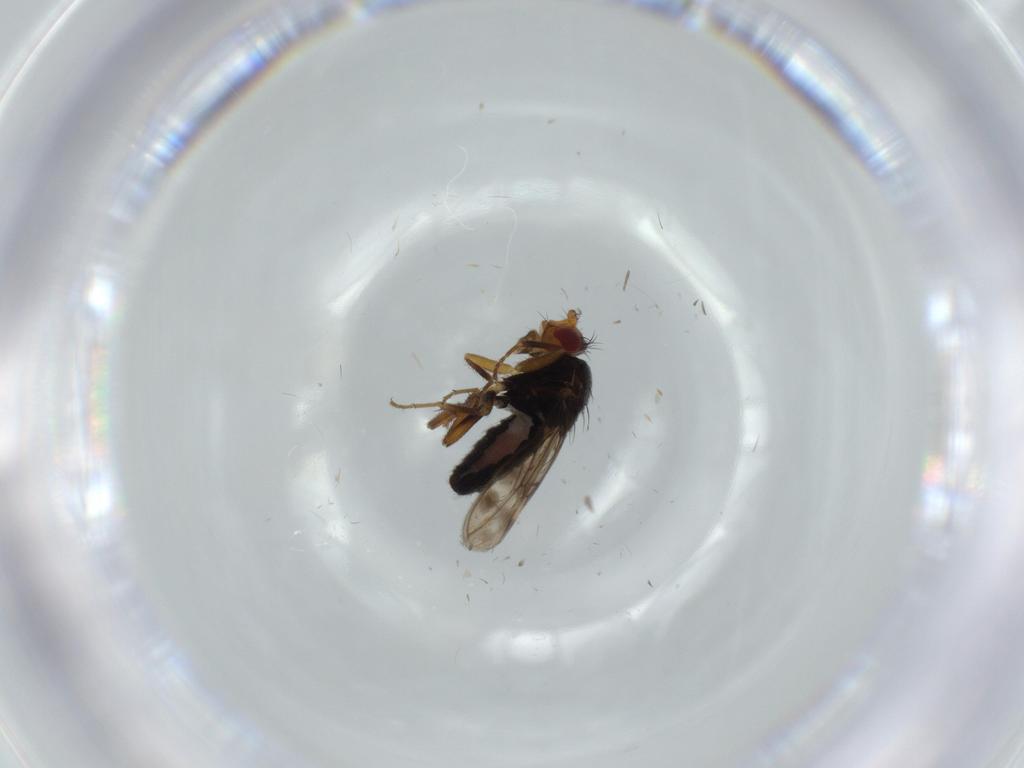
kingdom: Animalia
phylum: Arthropoda
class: Insecta
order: Diptera
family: Sphaeroceridae
